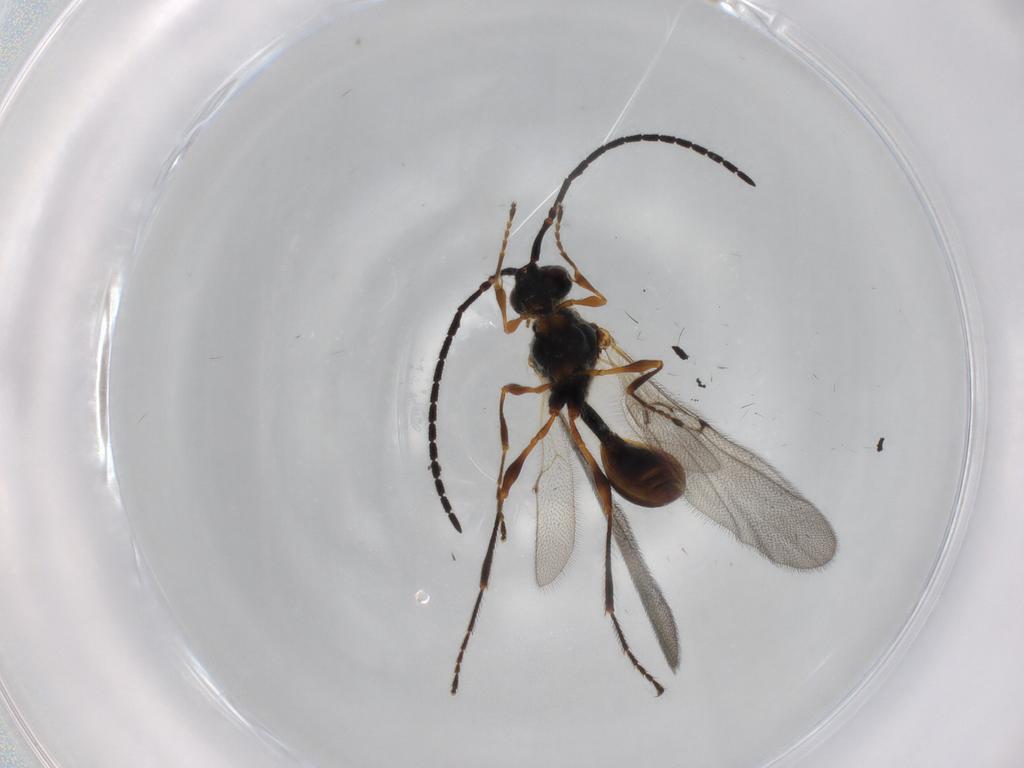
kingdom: Animalia
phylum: Arthropoda
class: Insecta
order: Hymenoptera
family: Diapriidae
